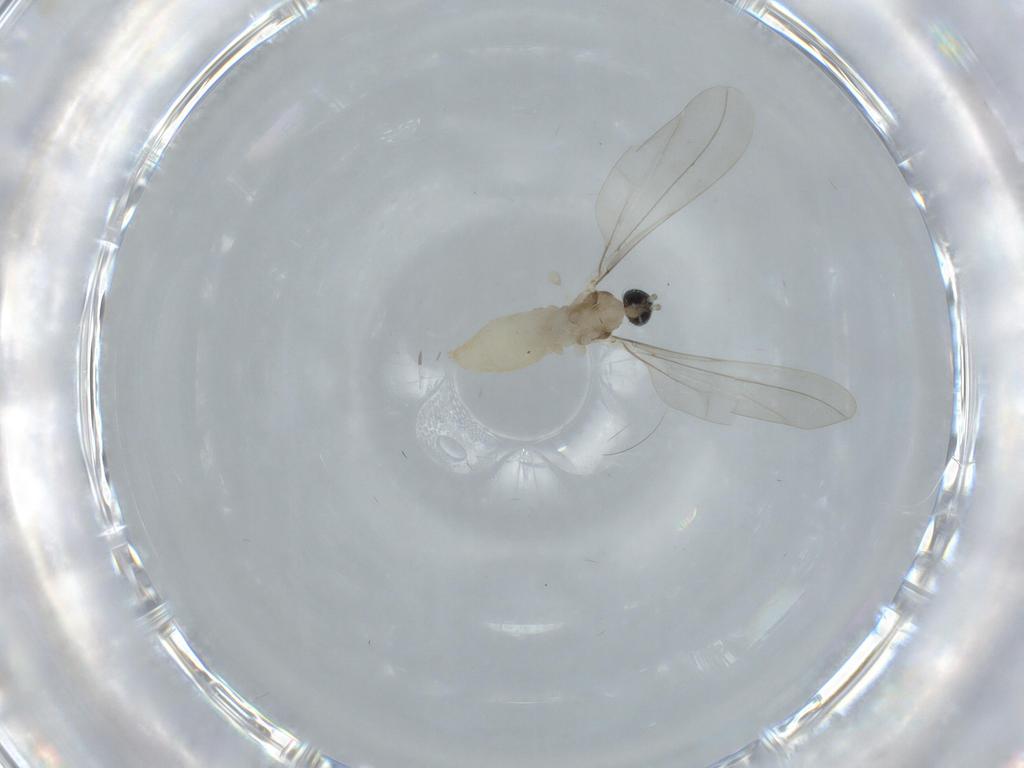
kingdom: Animalia
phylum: Arthropoda
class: Insecta
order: Diptera
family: Cecidomyiidae
